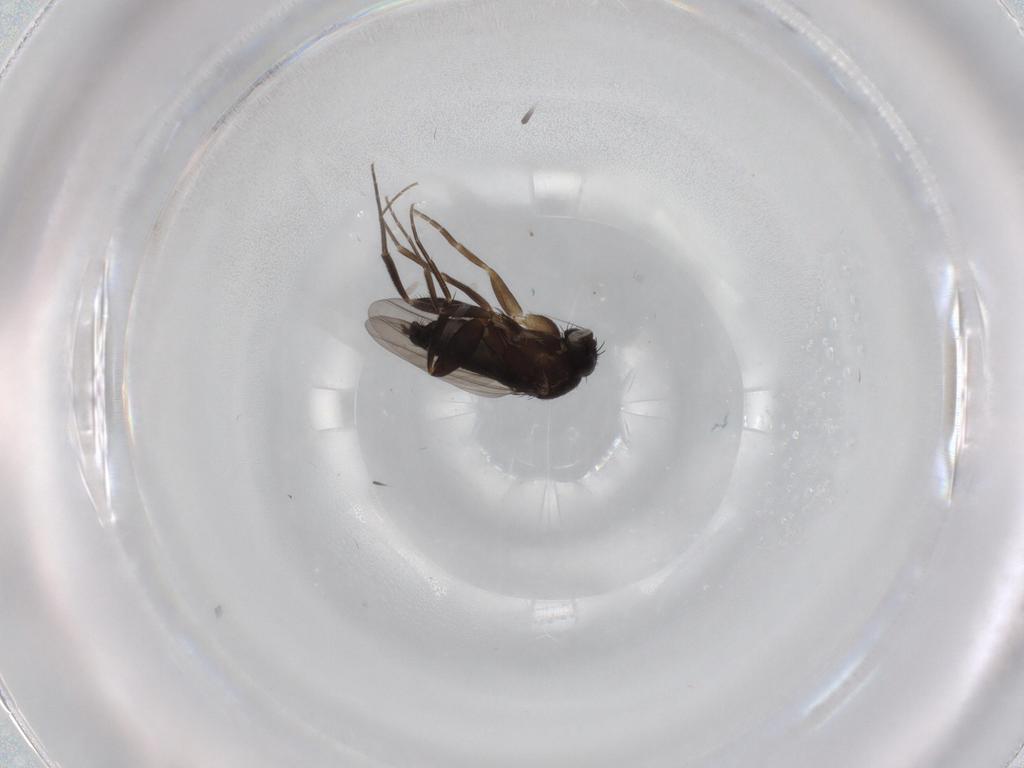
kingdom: Animalia
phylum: Arthropoda
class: Insecta
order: Diptera
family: Phoridae
